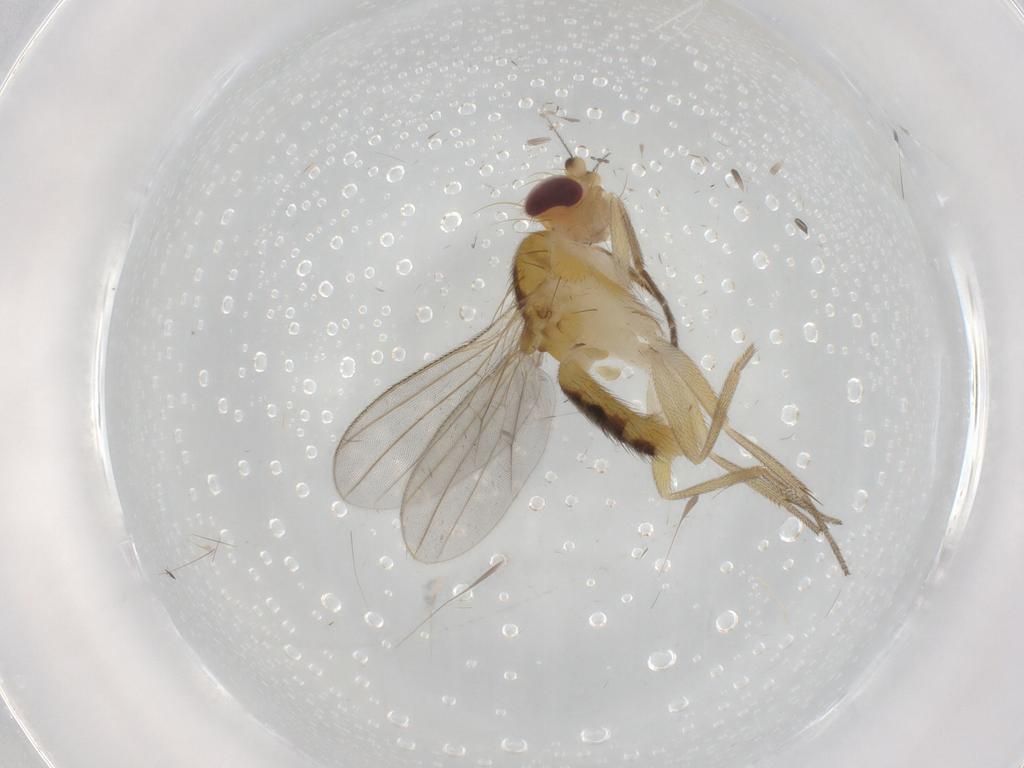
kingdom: Animalia
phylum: Arthropoda
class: Insecta
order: Diptera
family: Clusiidae
